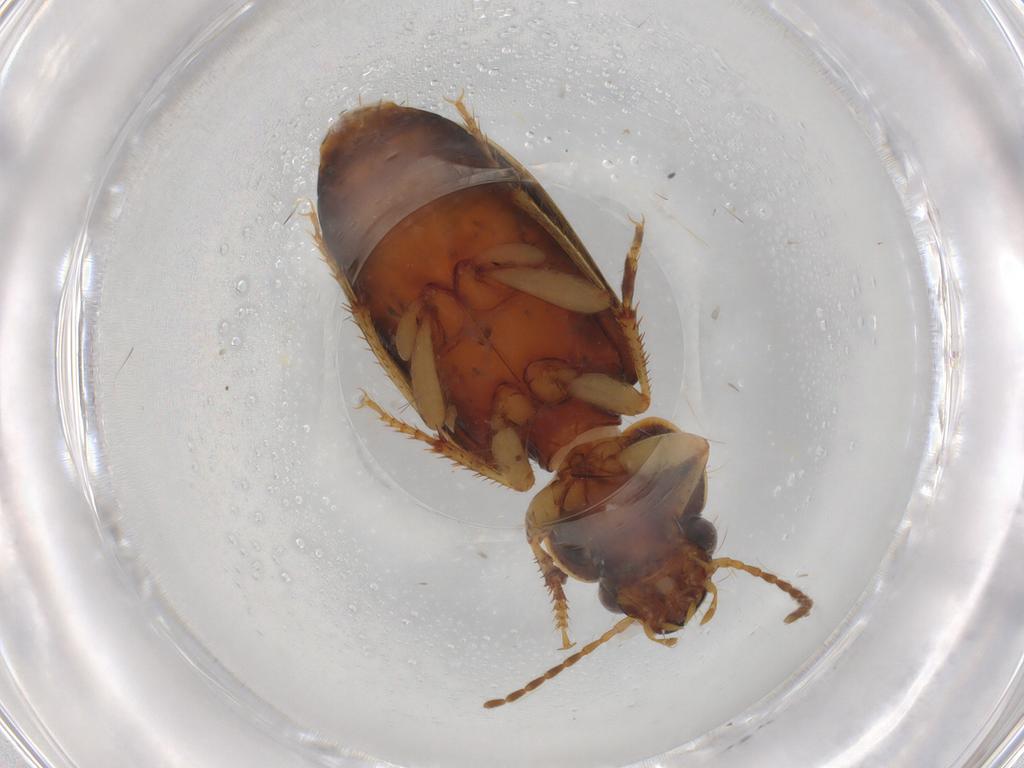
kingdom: Animalia
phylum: Arthropoda
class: Insecta
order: Coleoptera
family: Carabidae
